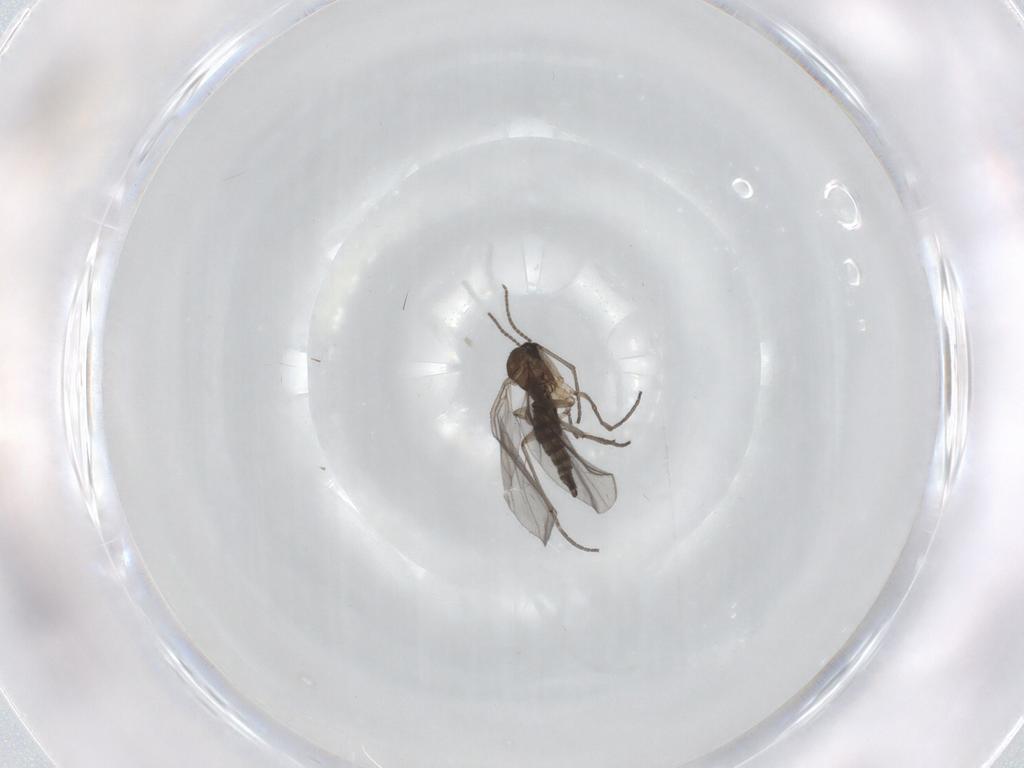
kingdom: Animalia
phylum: Arthropoda
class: Insecta
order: Diptera
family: Sciaridae
